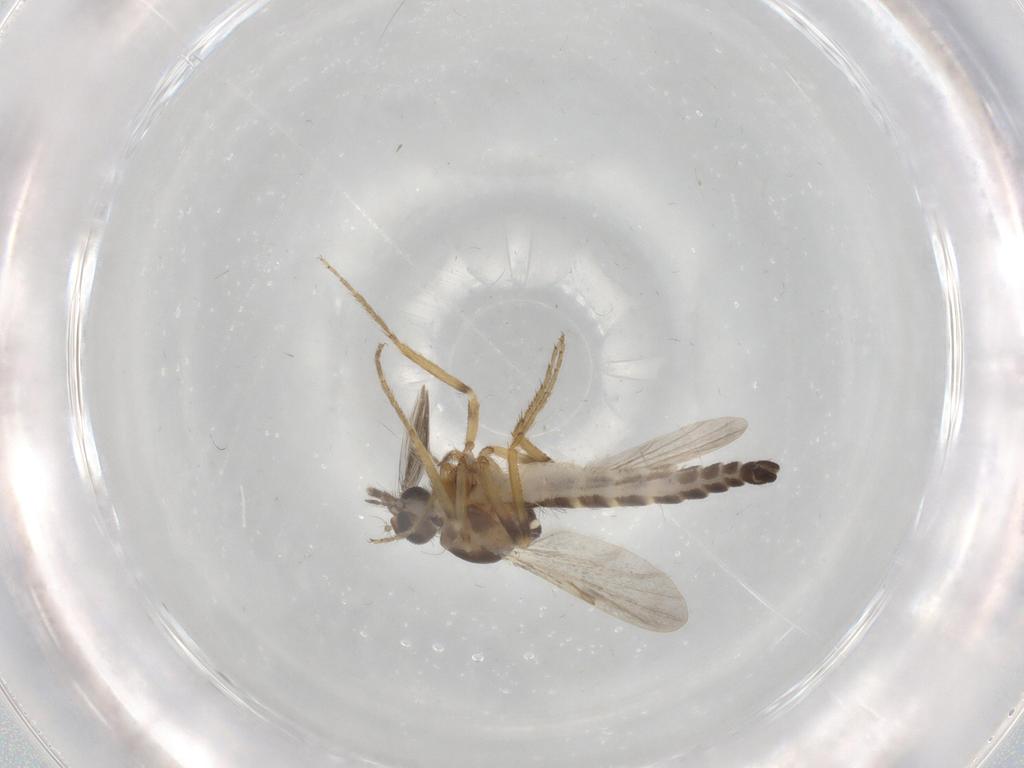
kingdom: Animalia
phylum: Arthropoda
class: Insecta
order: Diptera
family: Ceratopogonidae
